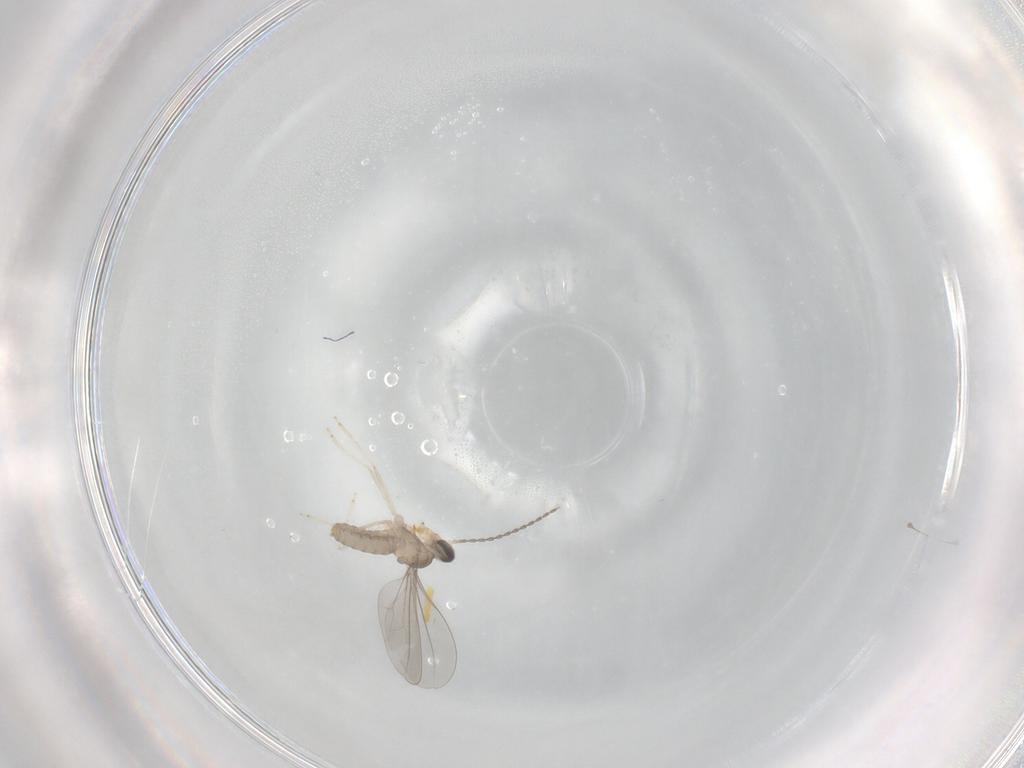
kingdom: Animalia
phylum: Arthropoda
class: Insecta
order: Diptera
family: Cecidomyiidae
